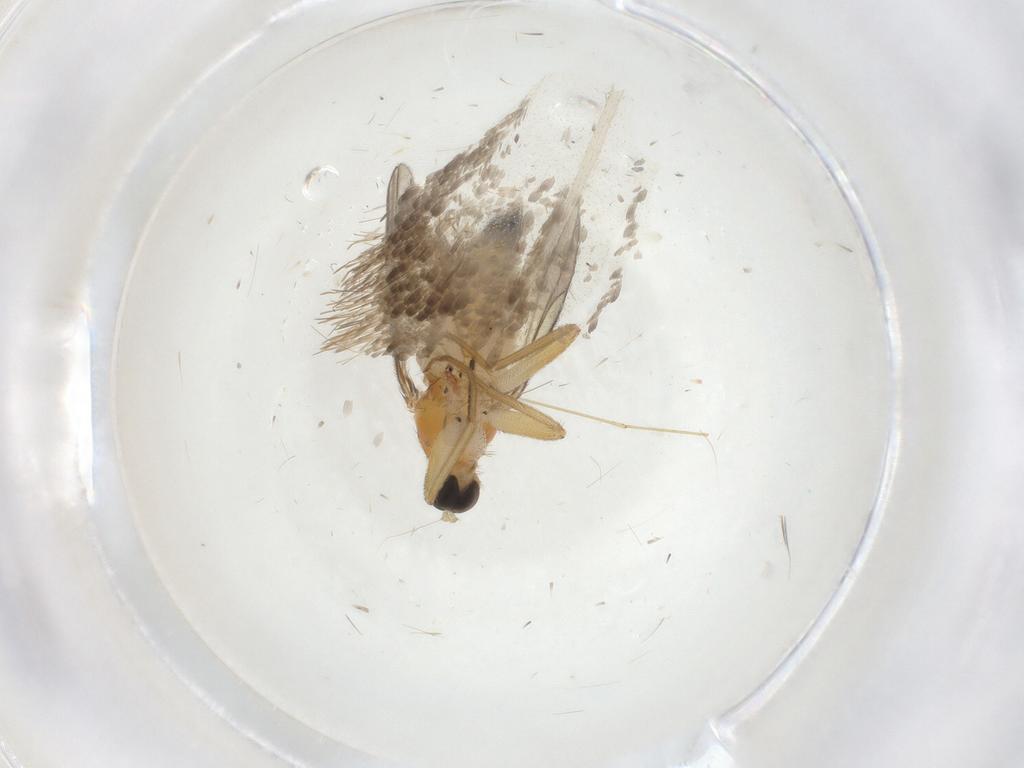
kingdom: Animalia
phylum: Arthropoda
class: Insecta
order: Diptera
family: Hybotidae
